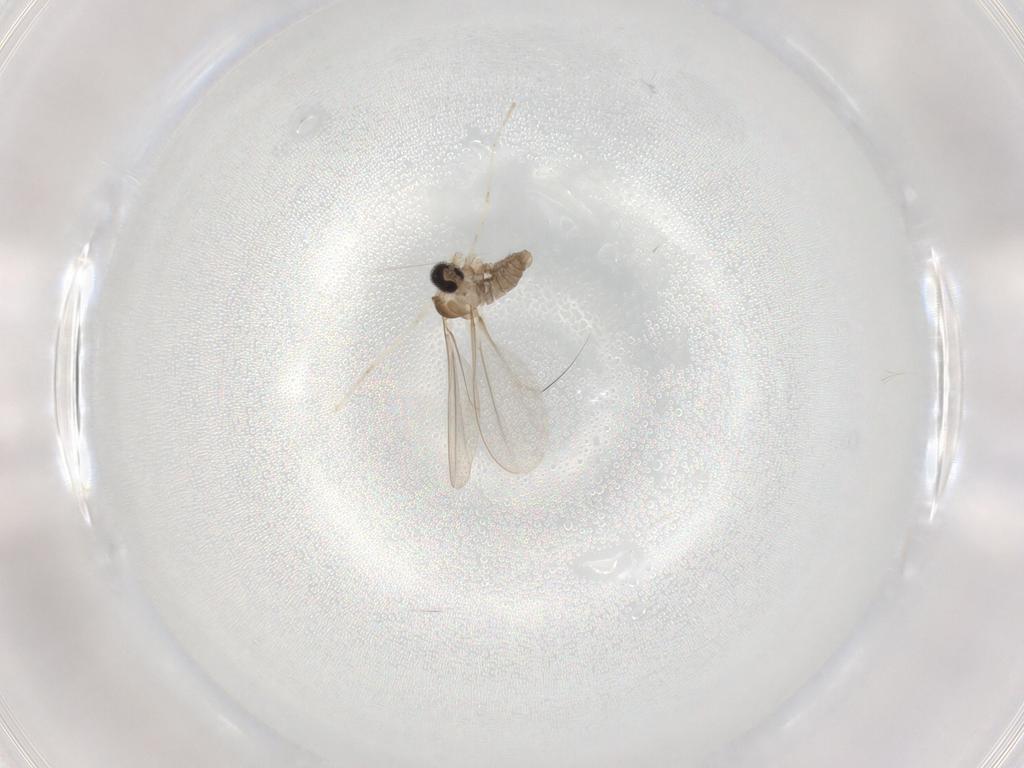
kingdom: Animalia
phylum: Arthropoda
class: Insecta
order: Diptera
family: Cecidomyiidae
